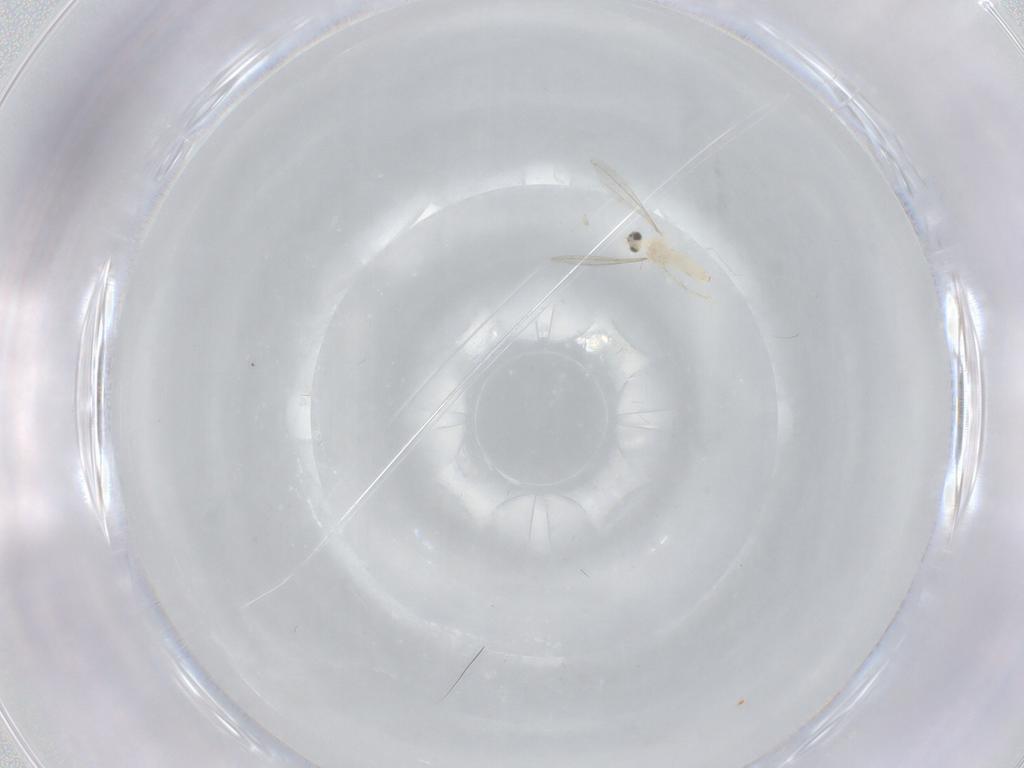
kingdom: Animalia
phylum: Arthropoda
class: Insecta
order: Diptera
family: Cecidomyiidae
